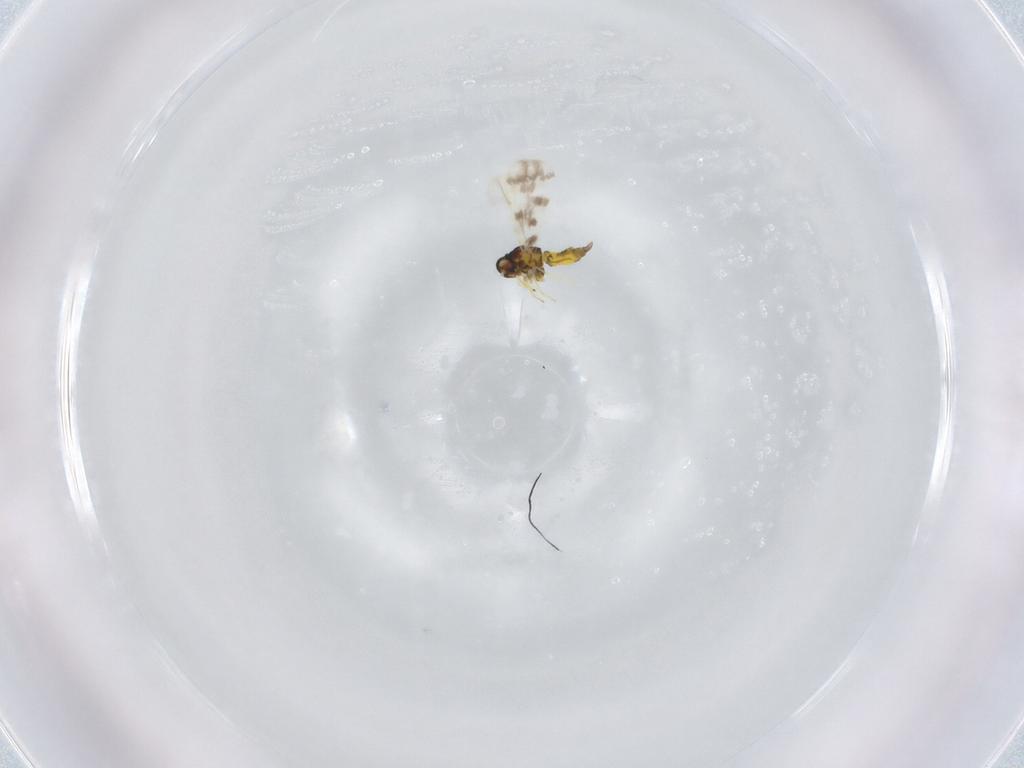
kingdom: Animalia
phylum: Arthropoda
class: Insecta
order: Hemiptera
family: Aleyrodidae
